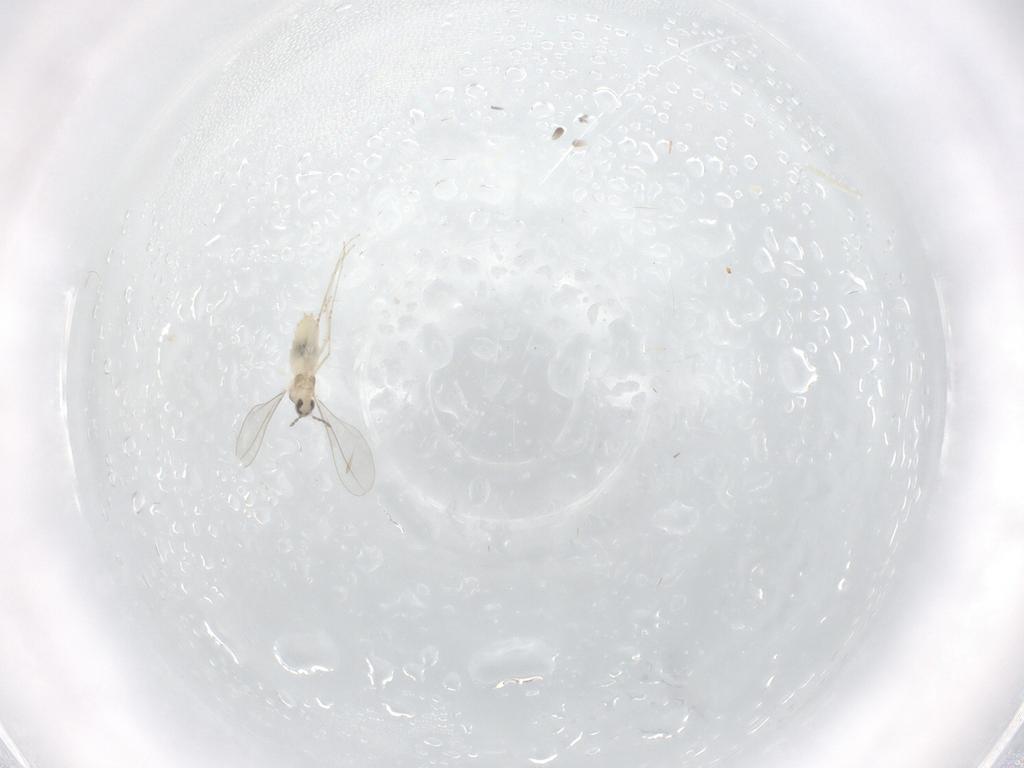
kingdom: Animalia
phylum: Arthropoda
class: Insecta
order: Diptera
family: Cecidomyiidae
